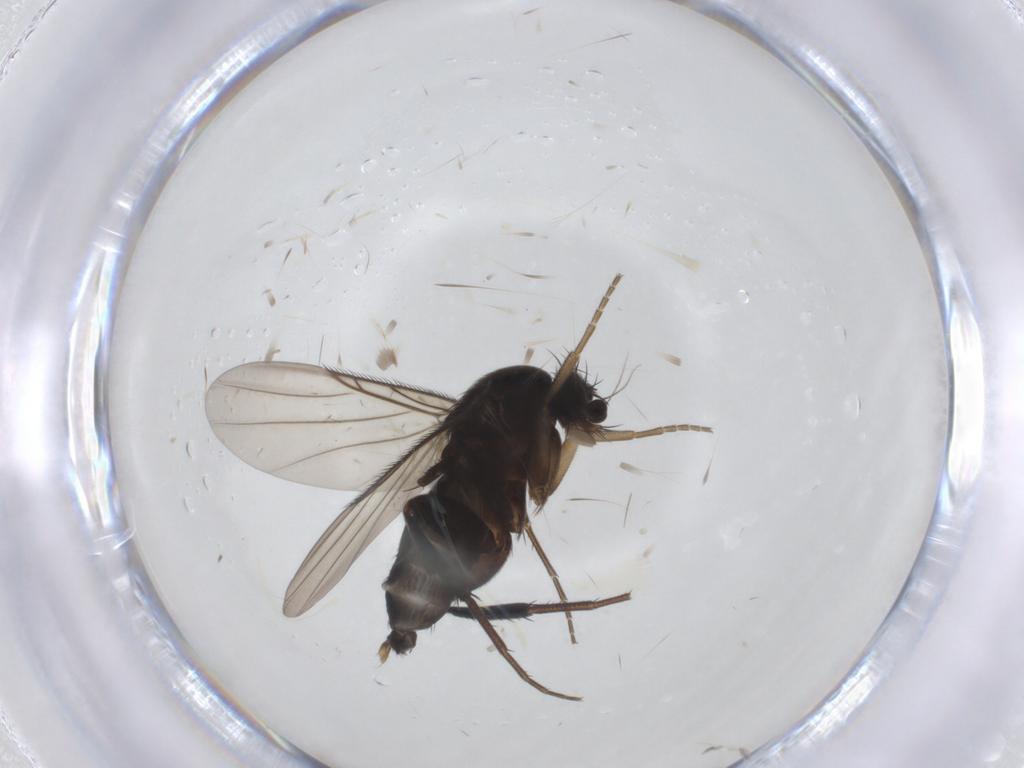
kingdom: Animalia
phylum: Arthropoda
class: Insecta
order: Diptera
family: Phoridae
